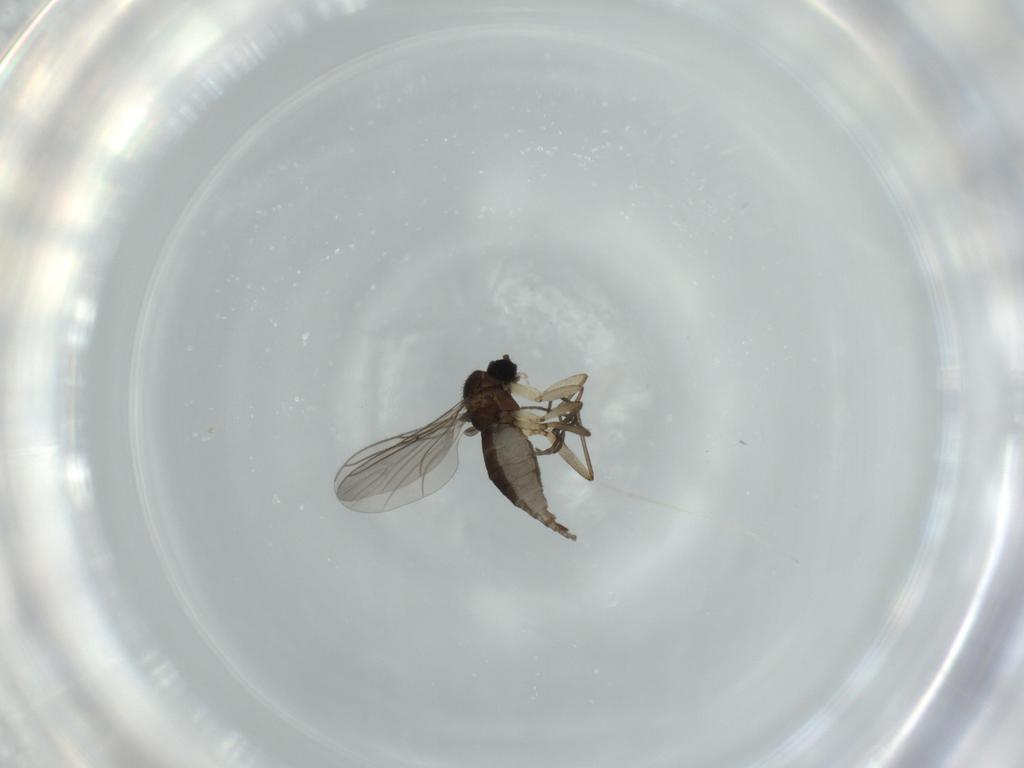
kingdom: Animalia
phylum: Arthropoda
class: Insecta
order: Diptera
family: Sciaridae
